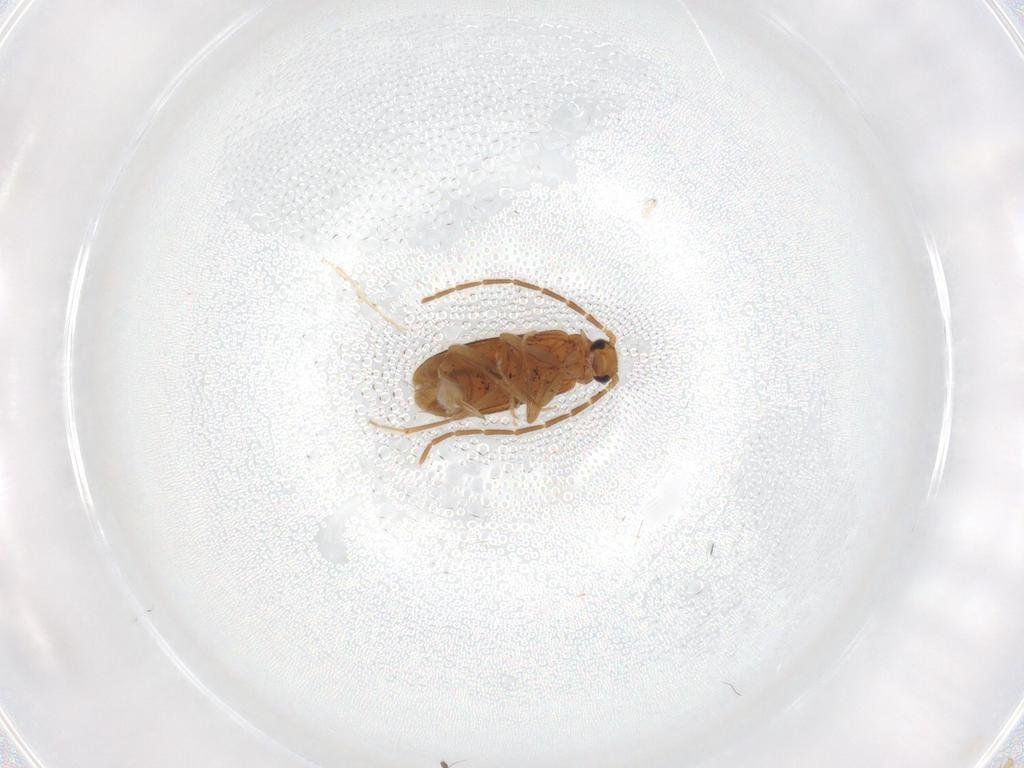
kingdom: Animalia
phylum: Arthropoda
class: Insecta
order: Coleoptera
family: Scraptiidae
